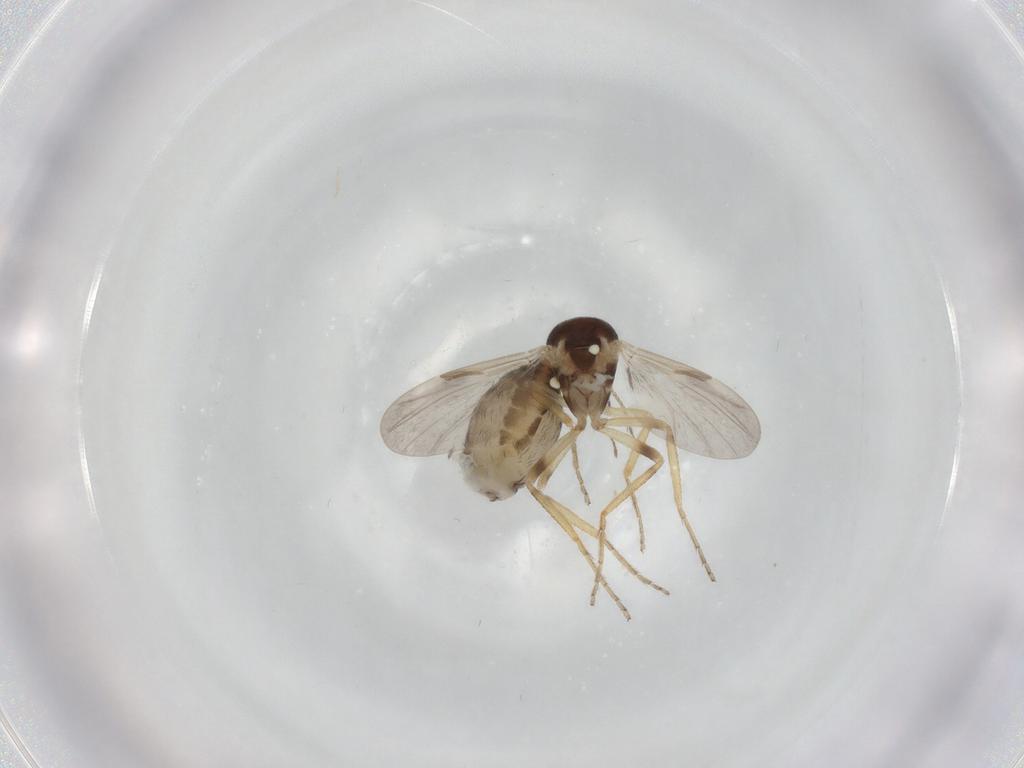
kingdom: Animalia
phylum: Arthropoda
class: Insecta
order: Diptera
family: Ceratopogonidae
